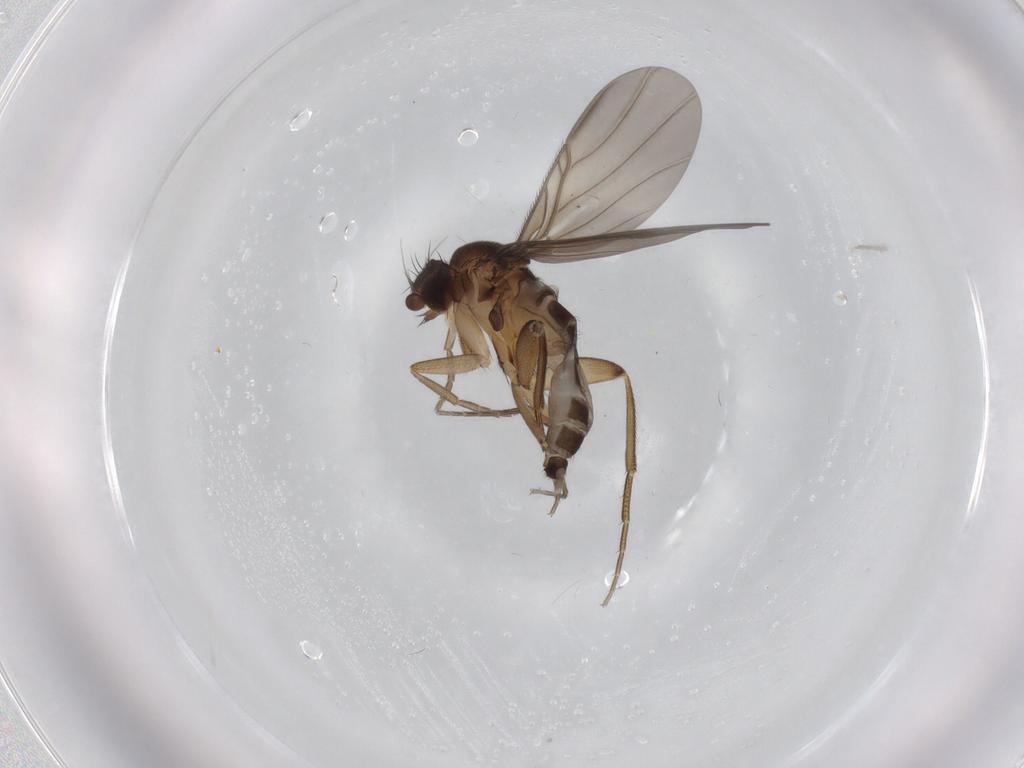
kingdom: Animalia
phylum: Arthropoda
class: Insecta
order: Diptera
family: Phoridae
